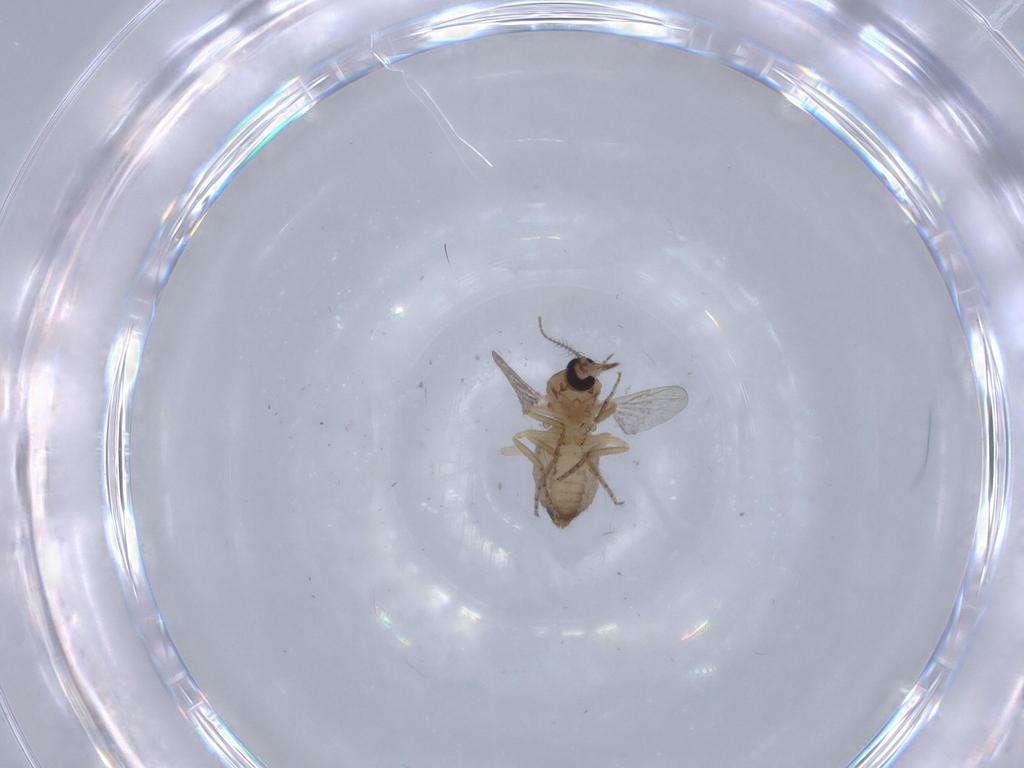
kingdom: Animalia
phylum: Arthropoda
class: Insecta
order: Diptera
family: Ceratopogonidae
